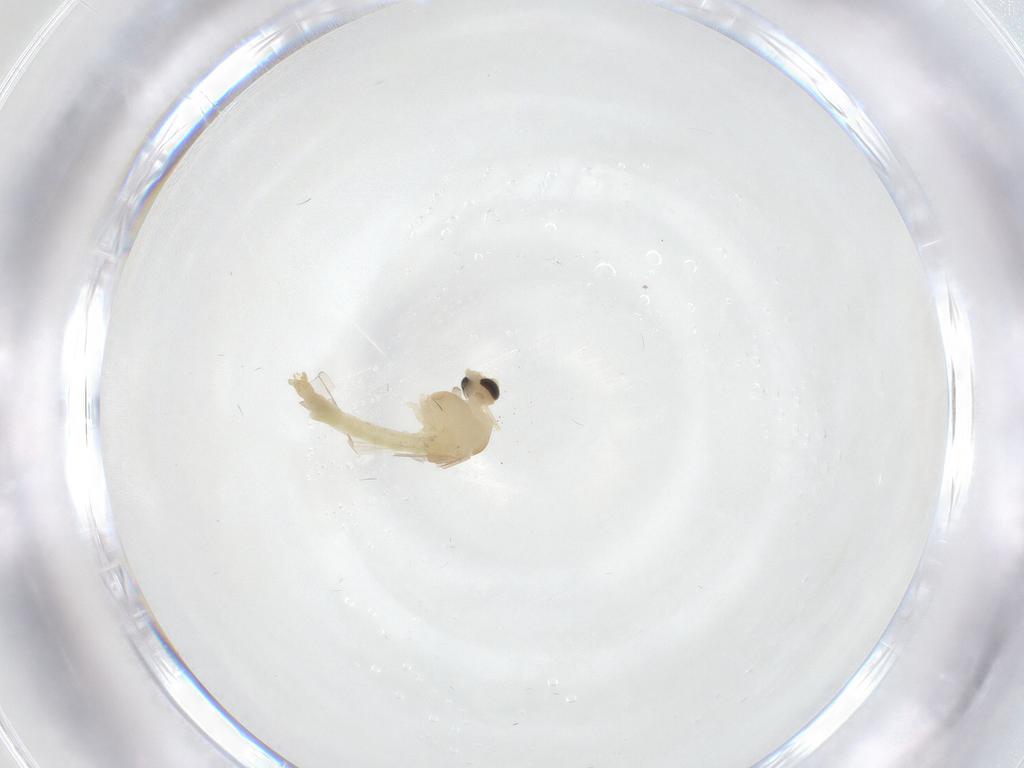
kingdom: Animalia
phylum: Arthropoda
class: Insecta
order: Diptera
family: Chironomidae
